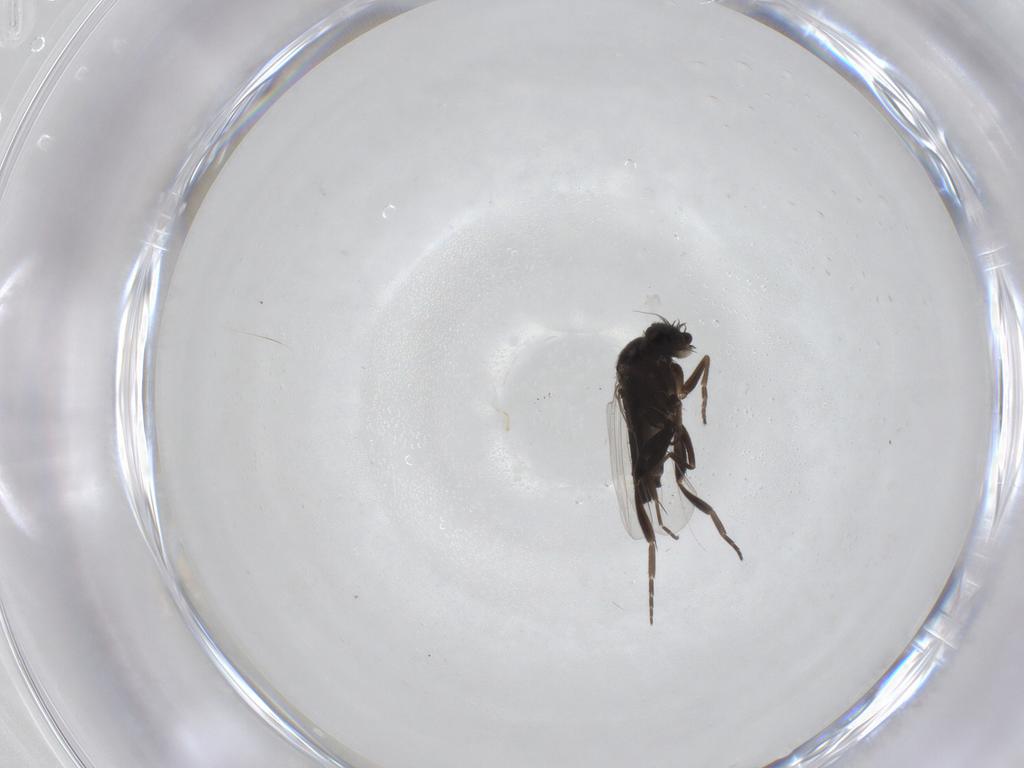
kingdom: Animalia
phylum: Arthropoda
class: Insecta
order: Diptera
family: Phoridae
